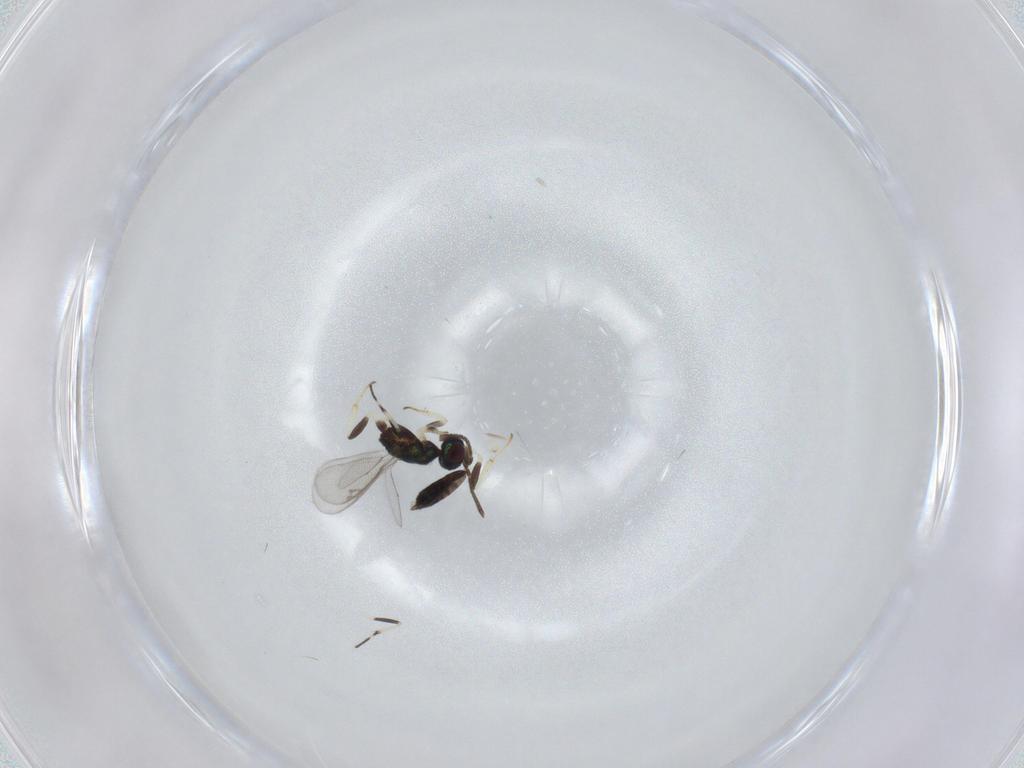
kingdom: Animalia
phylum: Arthropoda
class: Insecta
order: Hymenoptera
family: Eupelmidae
